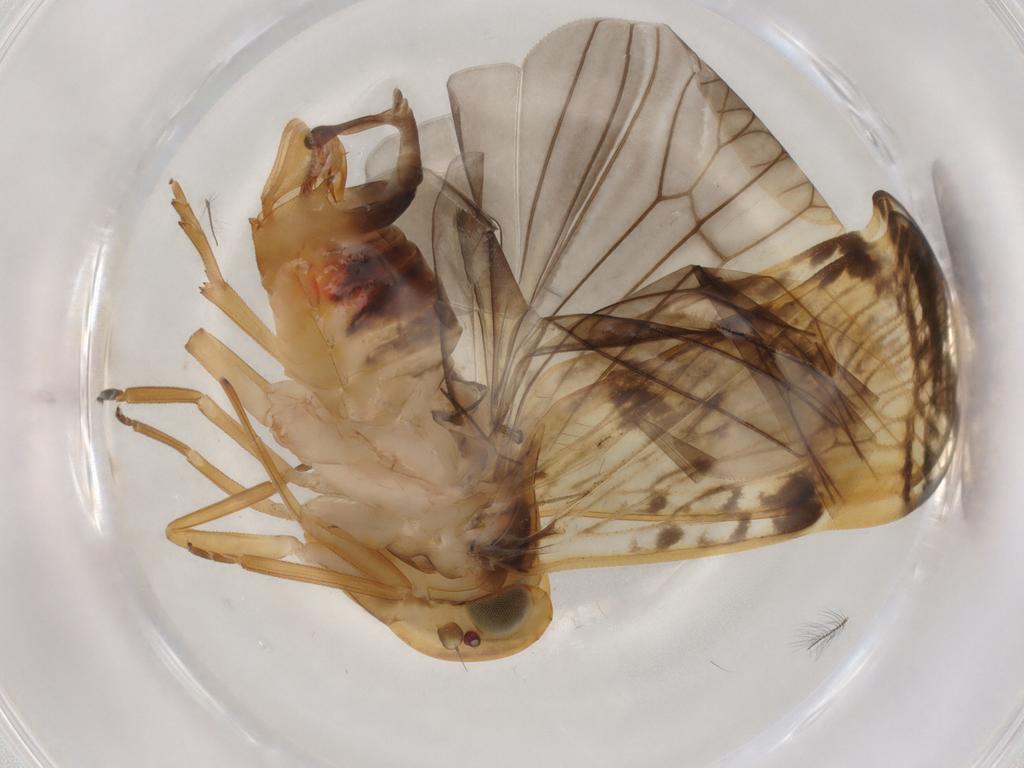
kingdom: Animalia
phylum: Arthropoda
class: Insecta
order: Hemiptera
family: Cixiidae
